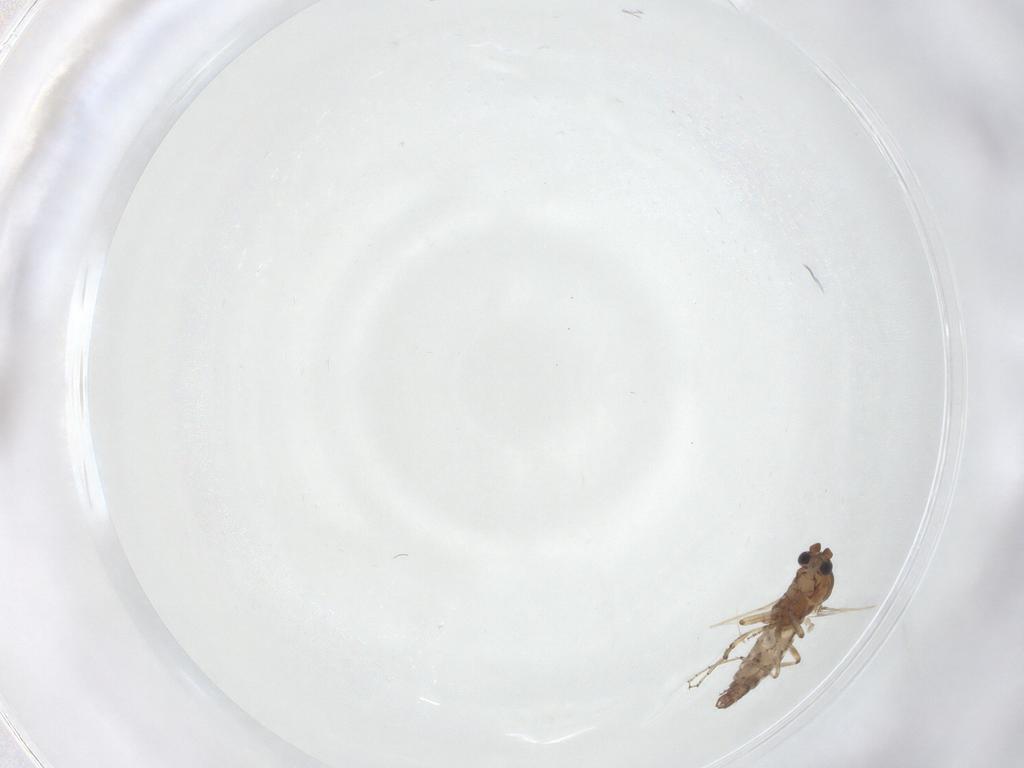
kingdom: Animalia
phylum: Arthropoda
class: Insecta
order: Diptera
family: Ceratopogonidae
